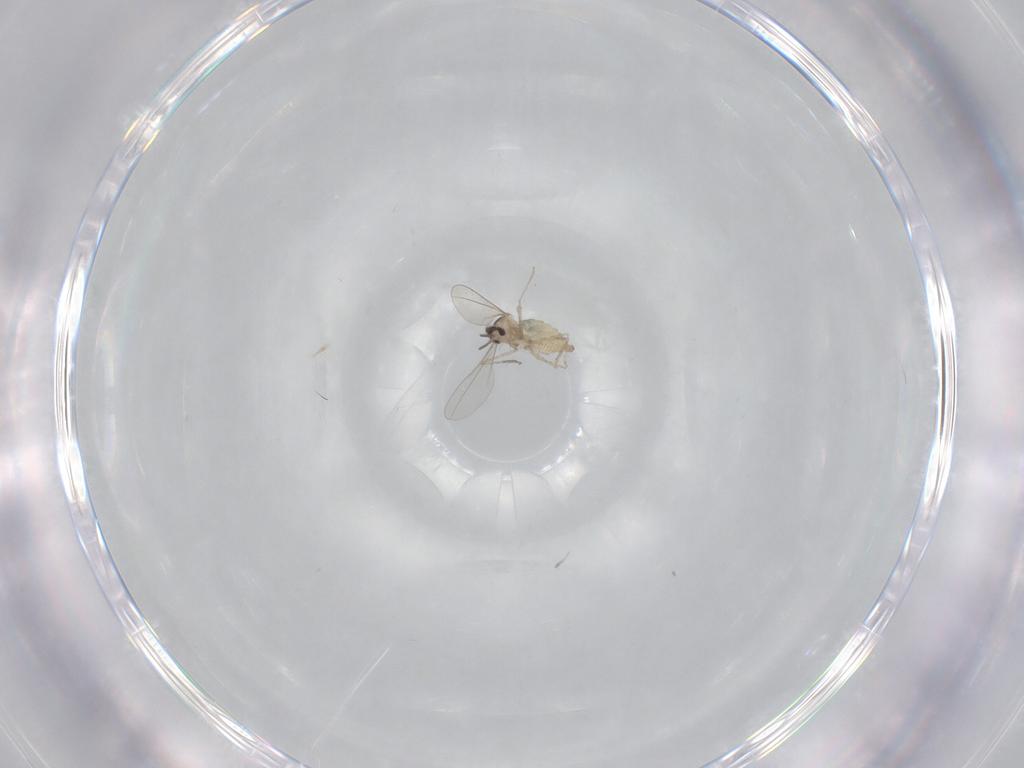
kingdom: Animalia
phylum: Arthropoda
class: Insecta
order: Diptera
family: Cecidomyiidae
